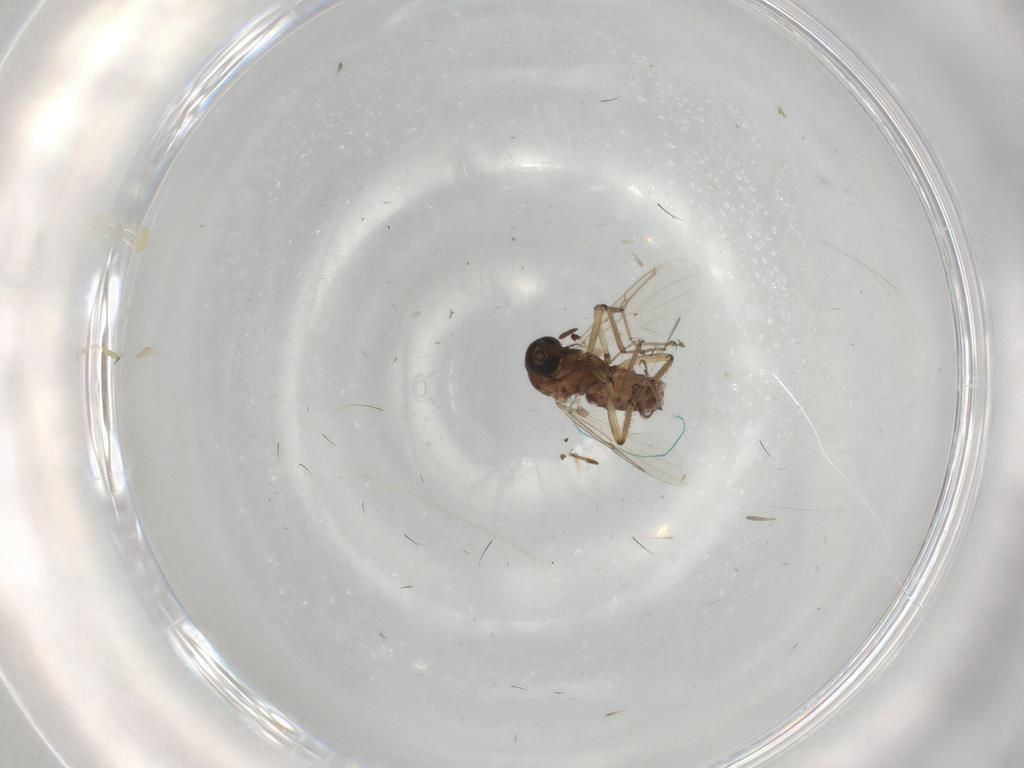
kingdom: Animalia
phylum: Arthropoda
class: Insecta
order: Diptera
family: Ceratopogonidae
